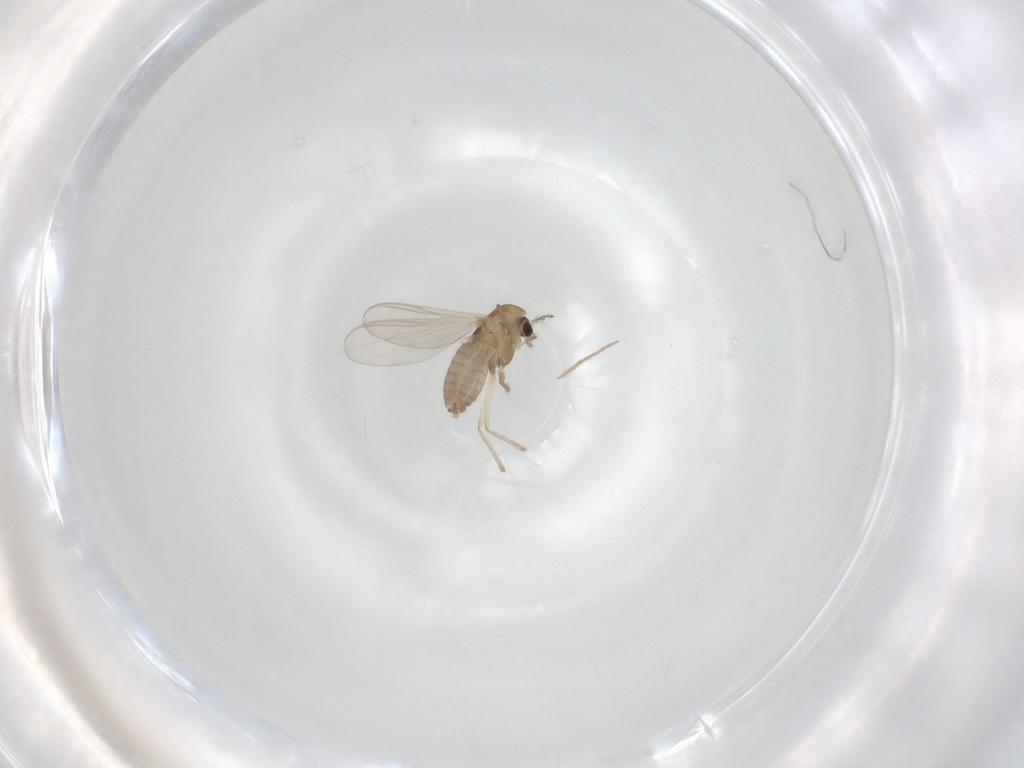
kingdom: Animalia
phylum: Arthropoda
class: Insecta
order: Diptera
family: Chironomidae
